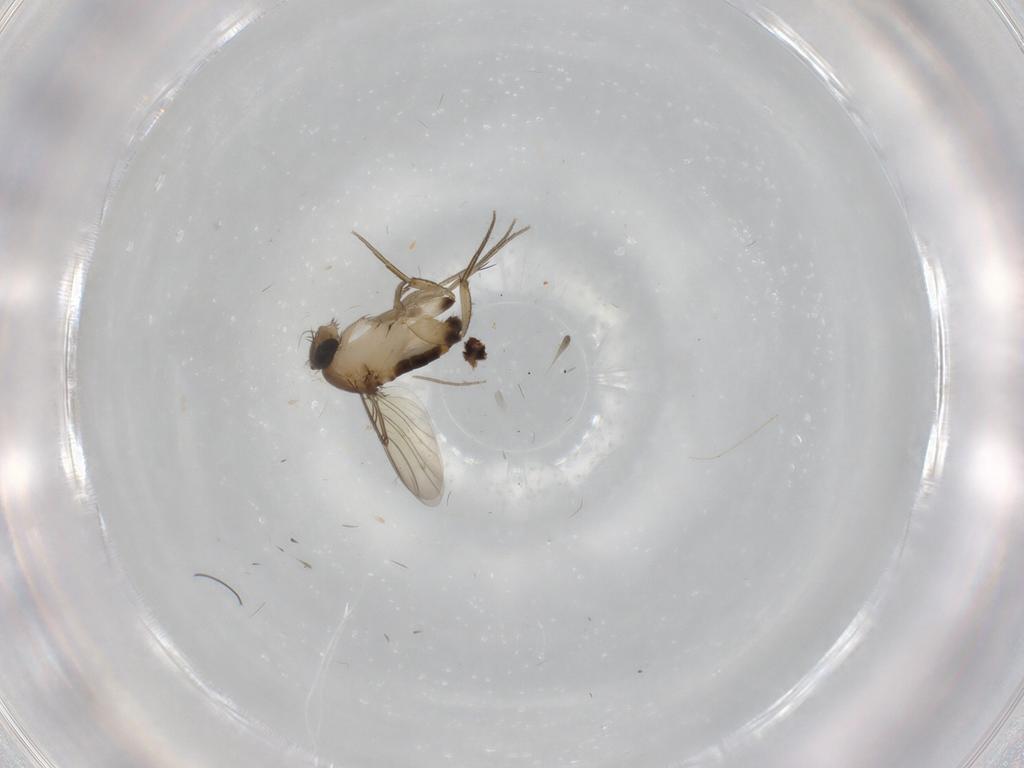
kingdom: Animalia
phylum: Arthropoda
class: Insecta
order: Diptera
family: Phoridae
